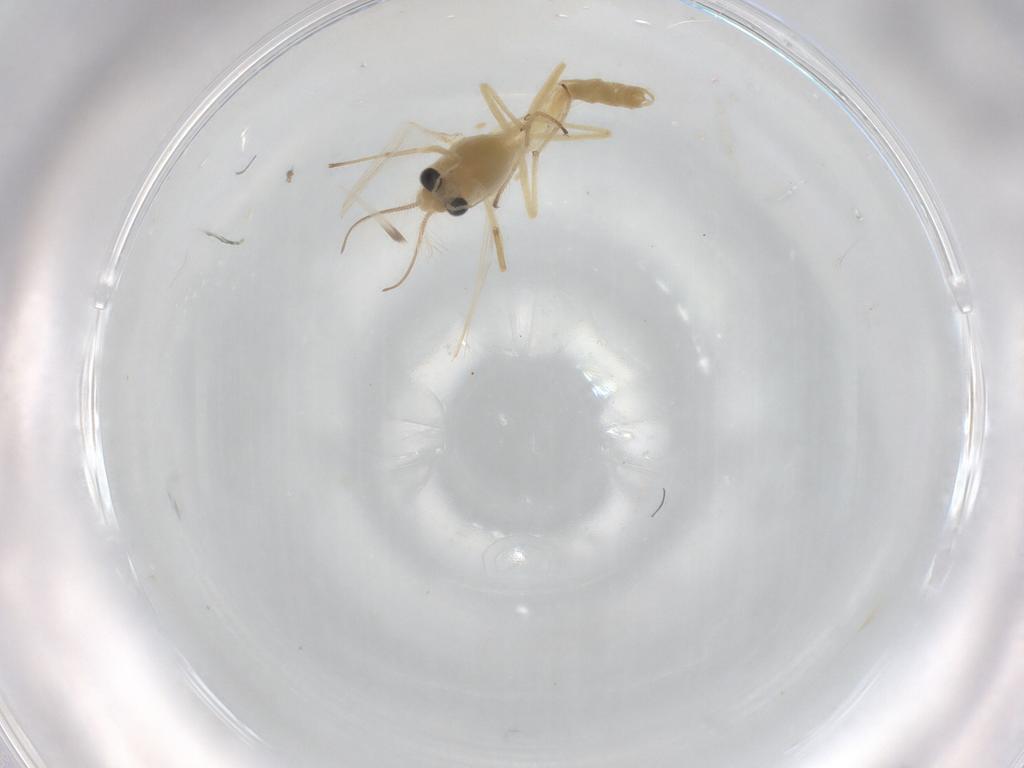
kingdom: Animalia
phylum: Arthropoda
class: Insecta
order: Diptera
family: Chironomidae
